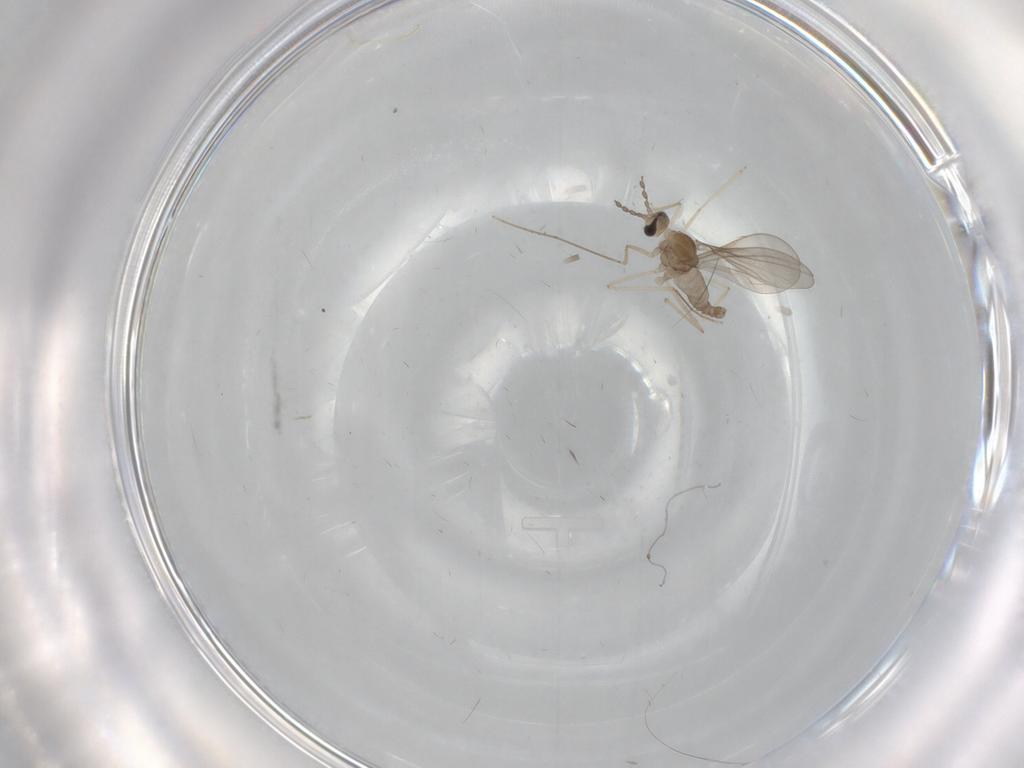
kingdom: Animalia
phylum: Arthropoda
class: Insecta
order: Diptera
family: Cecidomyiidae
